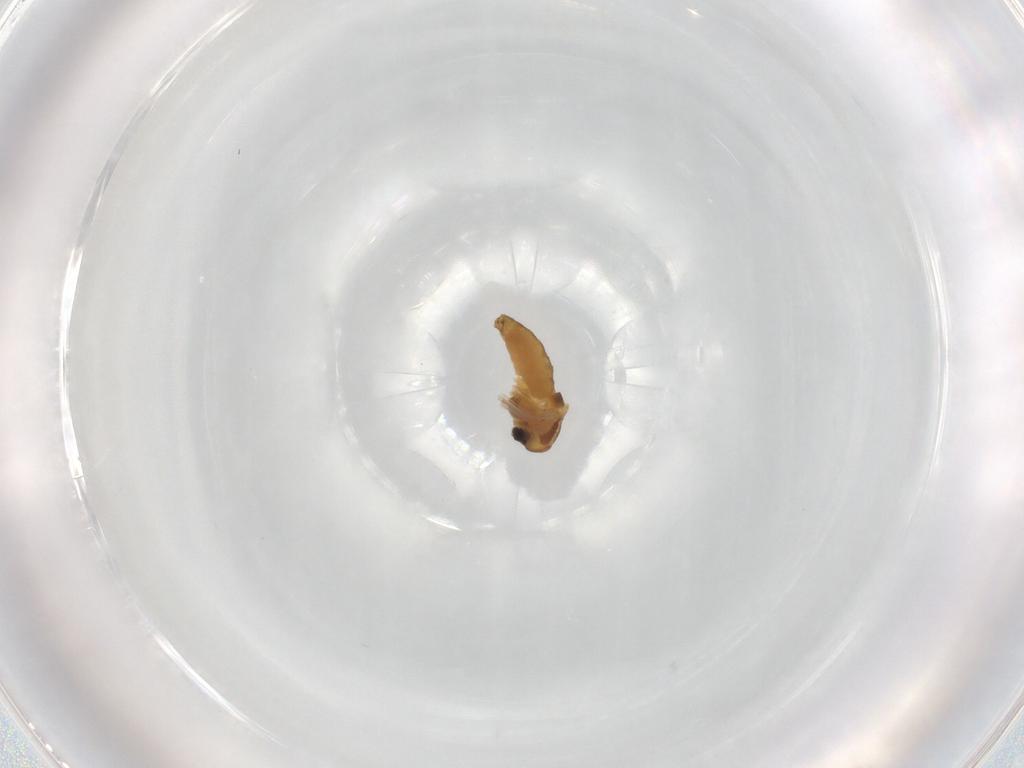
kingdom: Animalia
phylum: Arthropoda
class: Insecta
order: Diptera
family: Chironomidae
